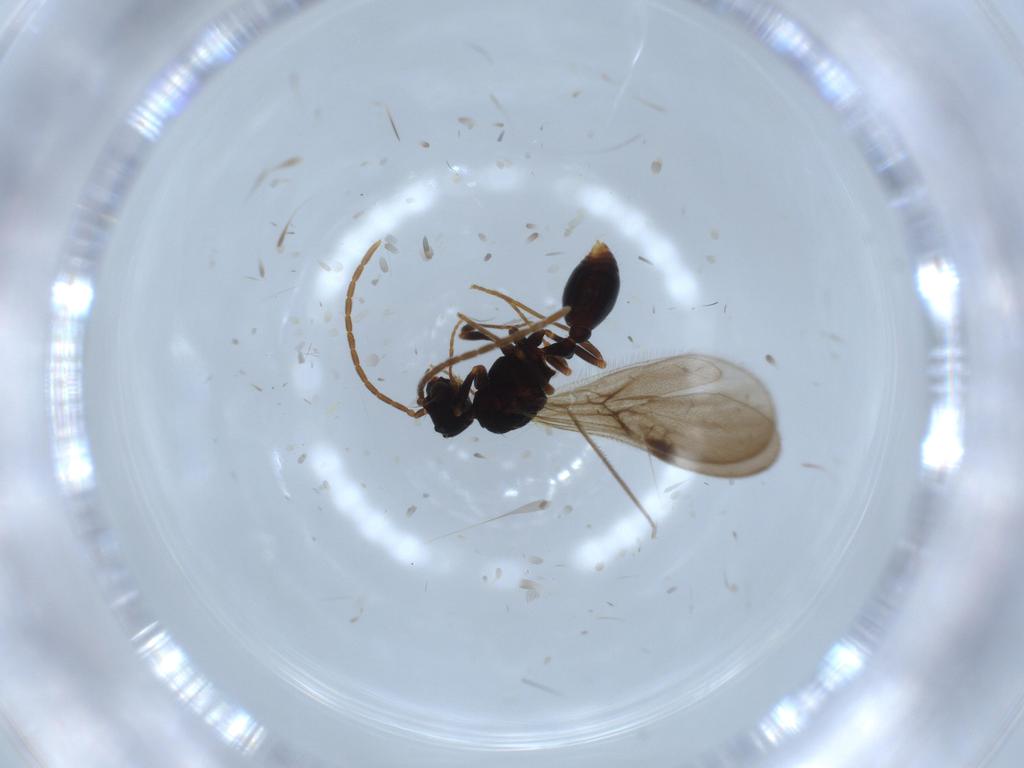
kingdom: Animalia
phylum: Arthropoda
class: Insecta
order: Hymenoptera
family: Formicidae
